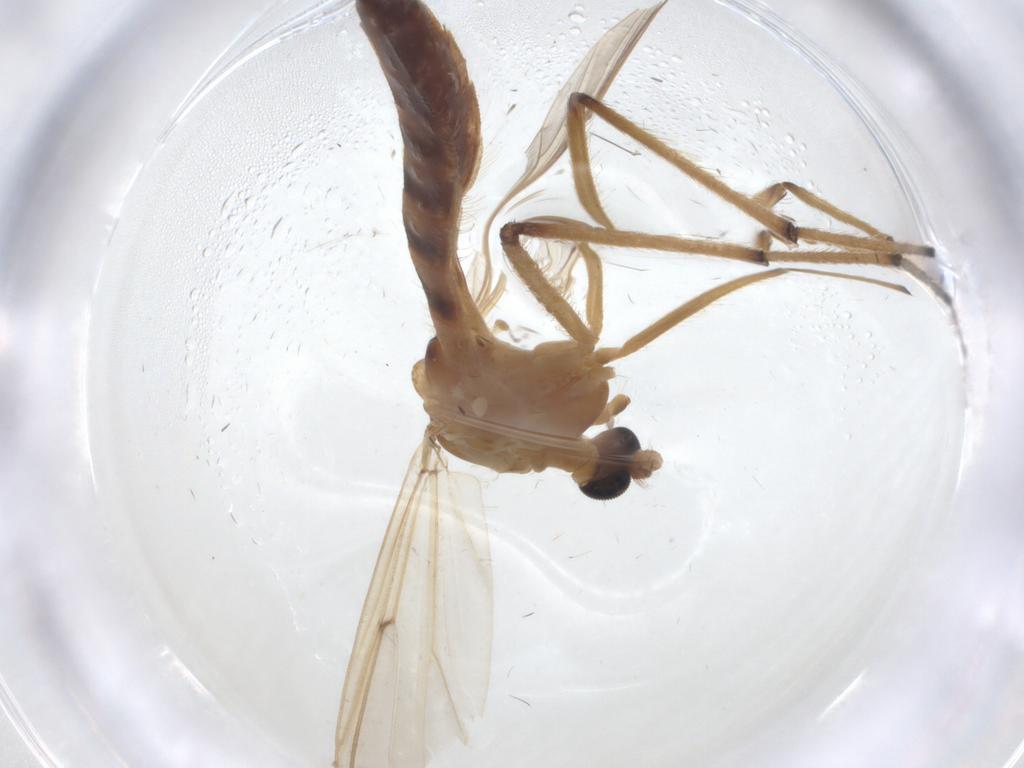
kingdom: Animalia
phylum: Arthropoda
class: Insecta
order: Diptera
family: Chironomidae
